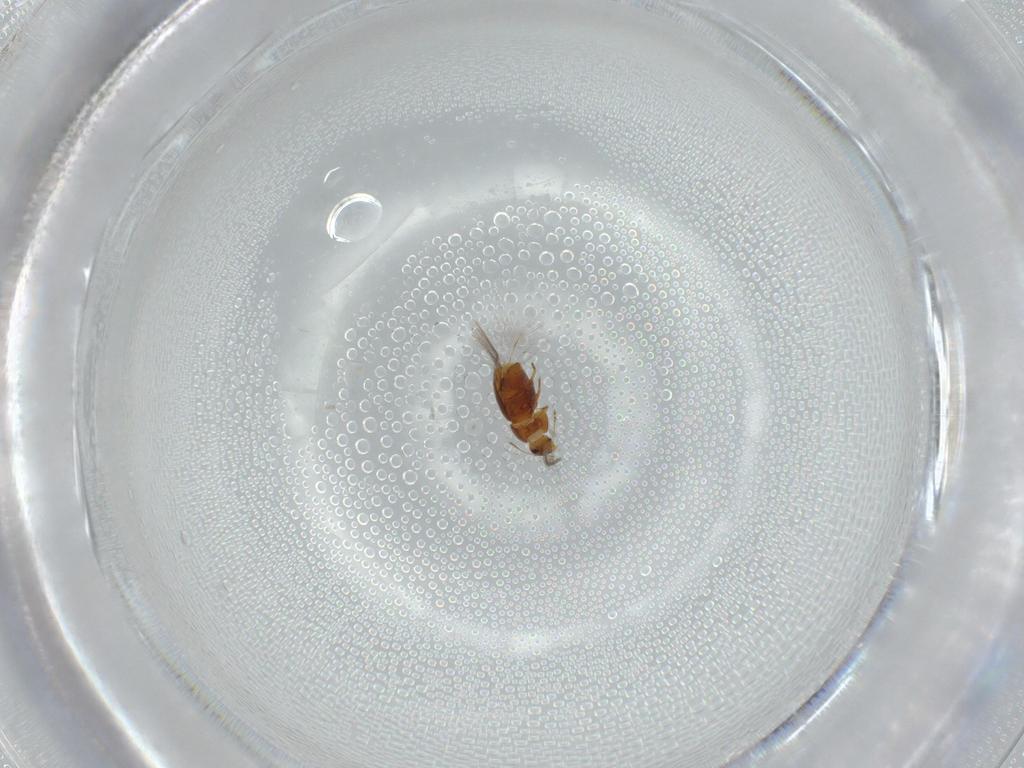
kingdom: Animalia
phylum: Arthropoda
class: Insecta
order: Coleoptera
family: Ptiliidae
